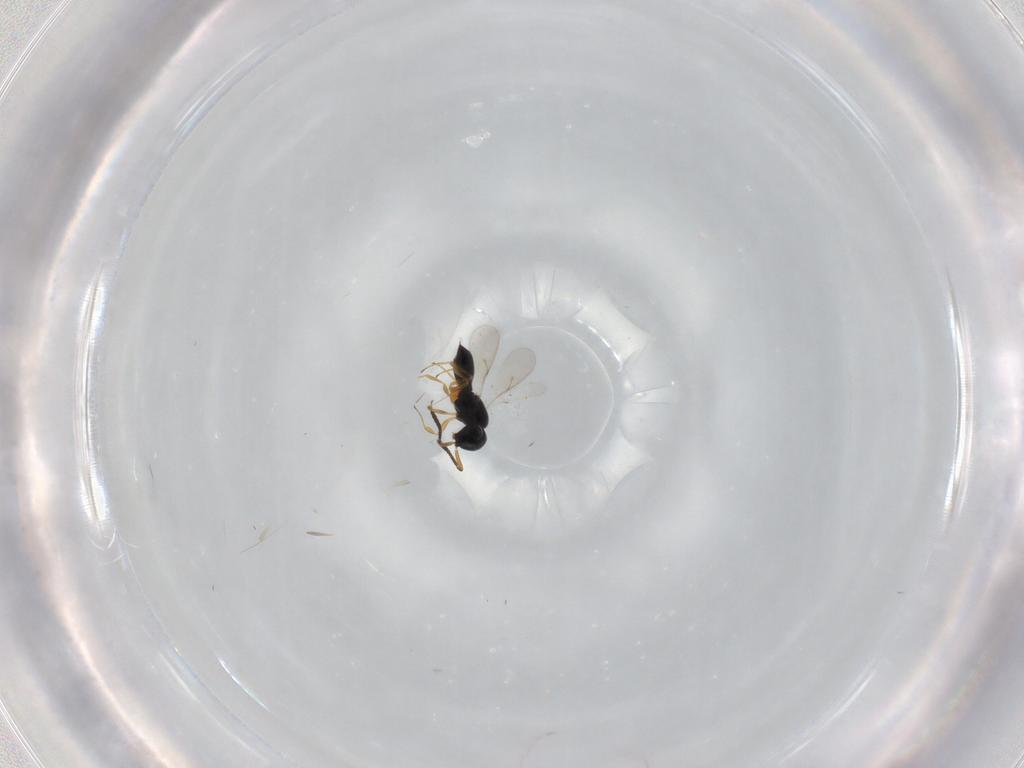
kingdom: Animalia
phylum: Arthropoda
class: Insecta
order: Hymenoptera
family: Scelionidae
